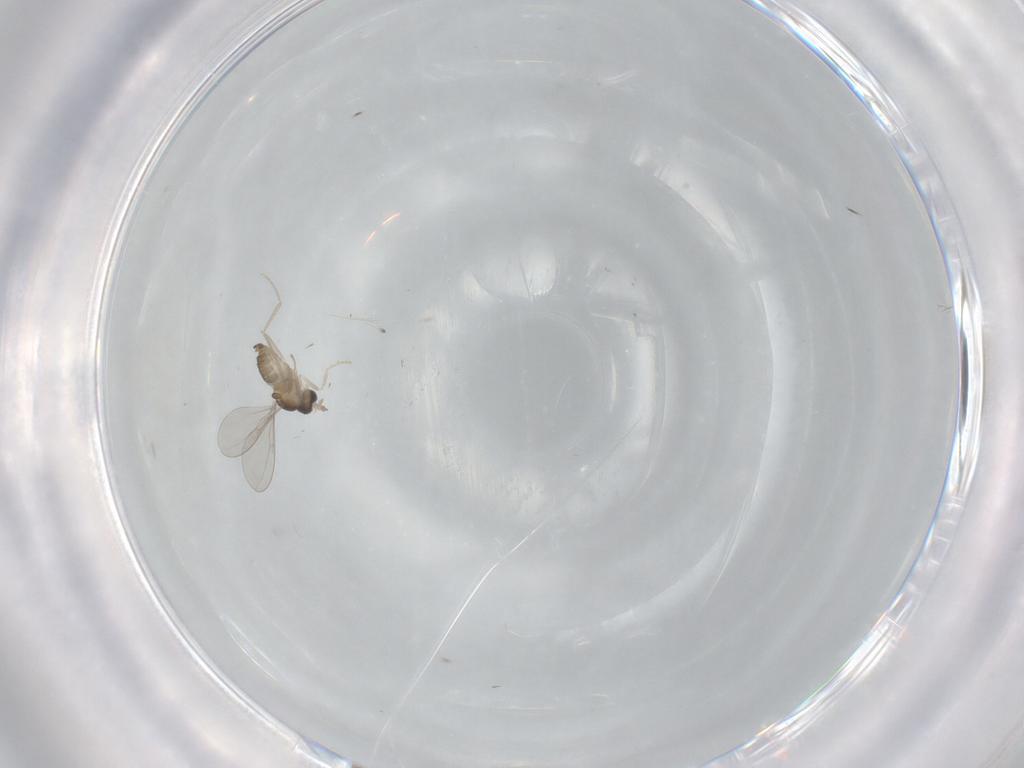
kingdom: Animalia
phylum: Arthropoda
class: Insecta
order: Diptera
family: Cecidomyiidae
